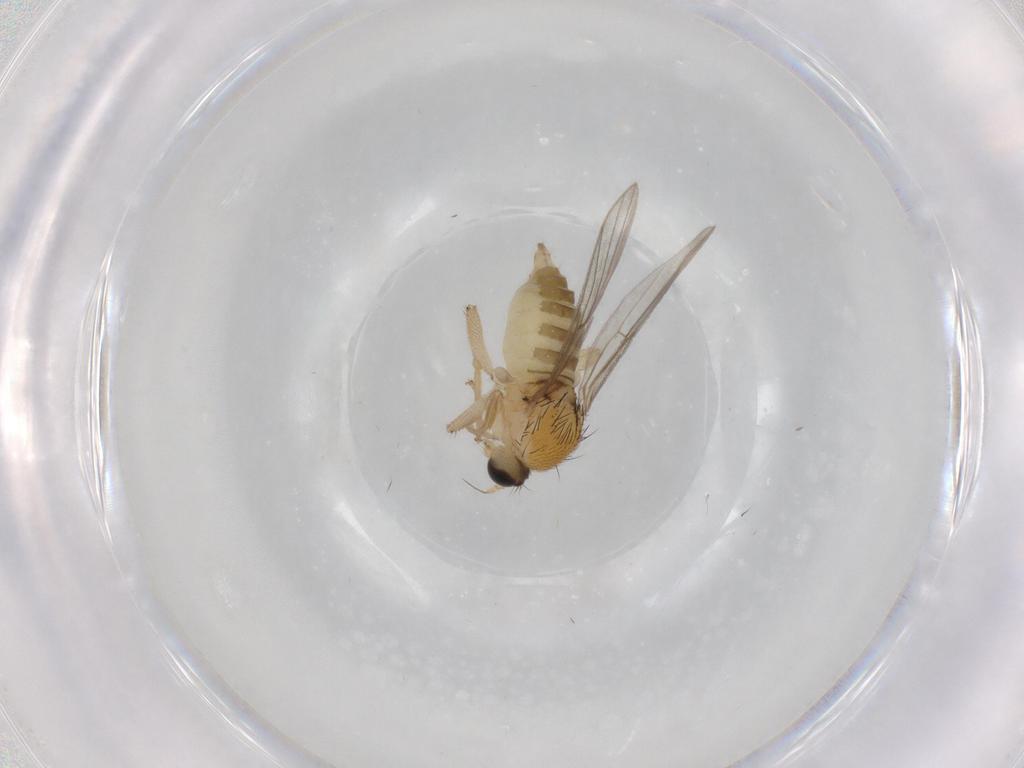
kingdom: Animalia
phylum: Arthropoda
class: Insecta
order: Diptera
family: Hybotidae
